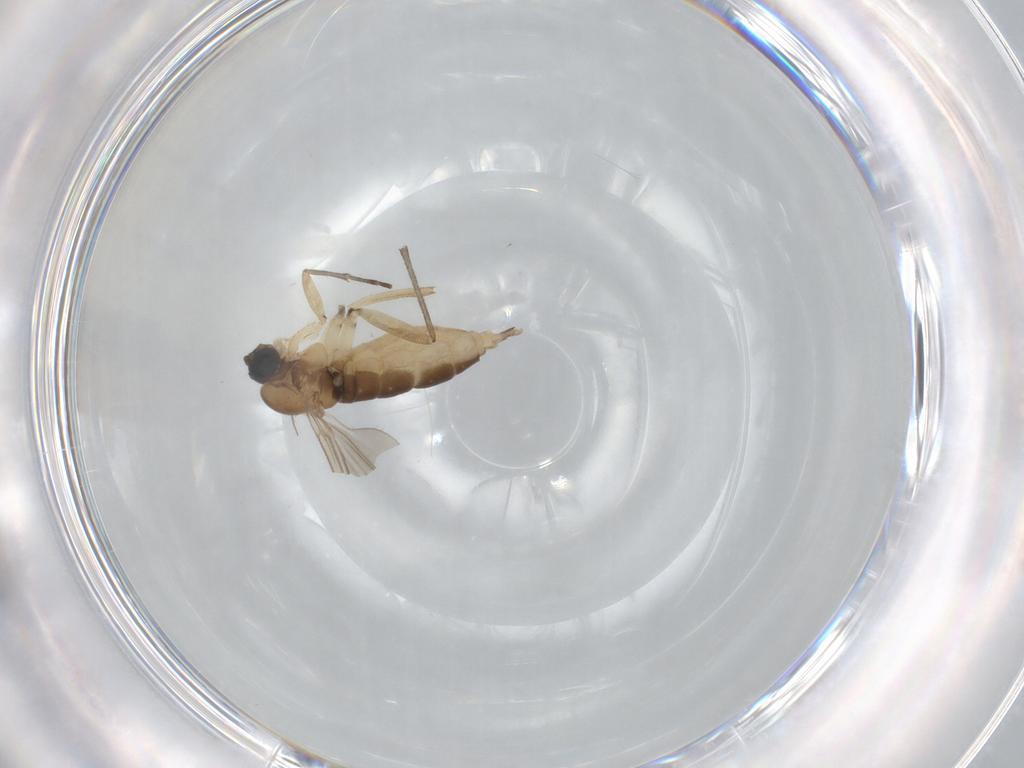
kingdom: Animalia
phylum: Arthropoda
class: Insecta
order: Diptera
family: Sciaridae
